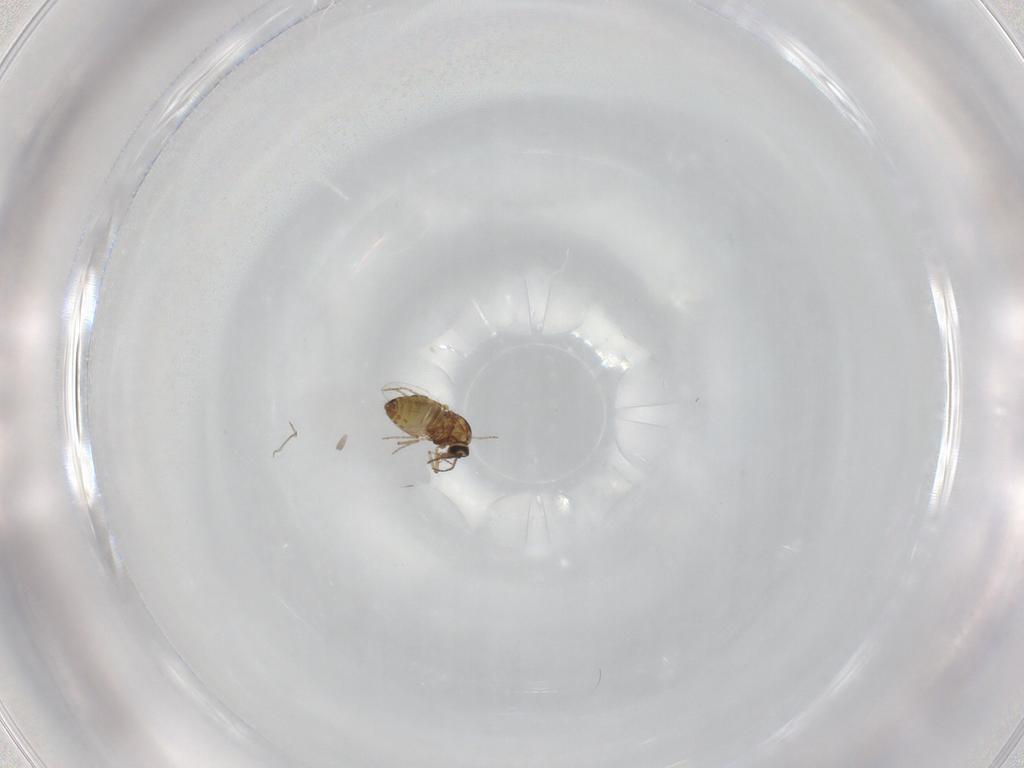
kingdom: Animalia
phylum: Arthropoda
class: Insecta
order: Diptera
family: Ceratopogonidae
